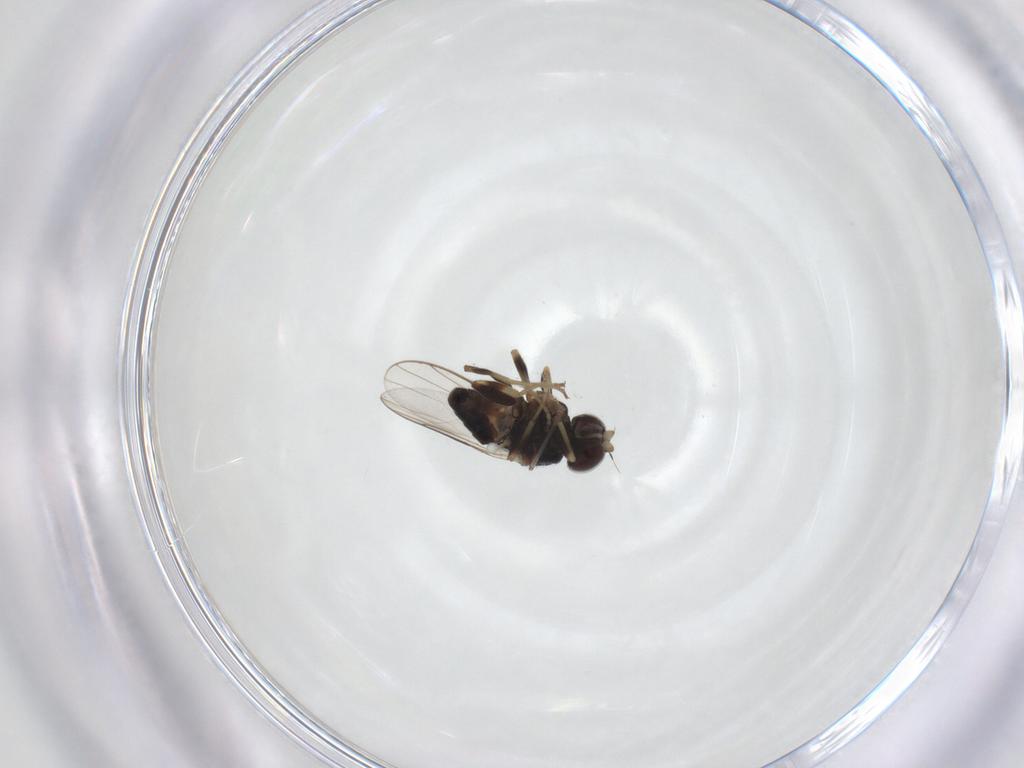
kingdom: Animalia
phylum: Arthropoda
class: Insecta
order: Diptera
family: Chloropidae
